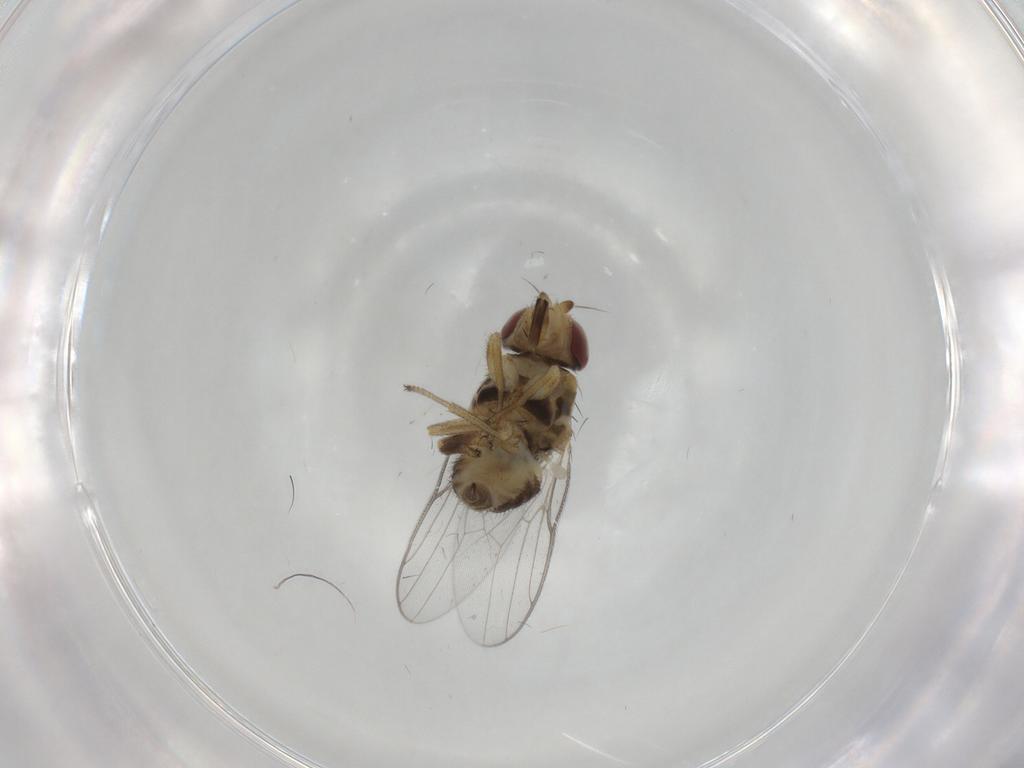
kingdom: Animalia
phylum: Arthropoda
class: Insecta
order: Diptera
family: Chloropidae
